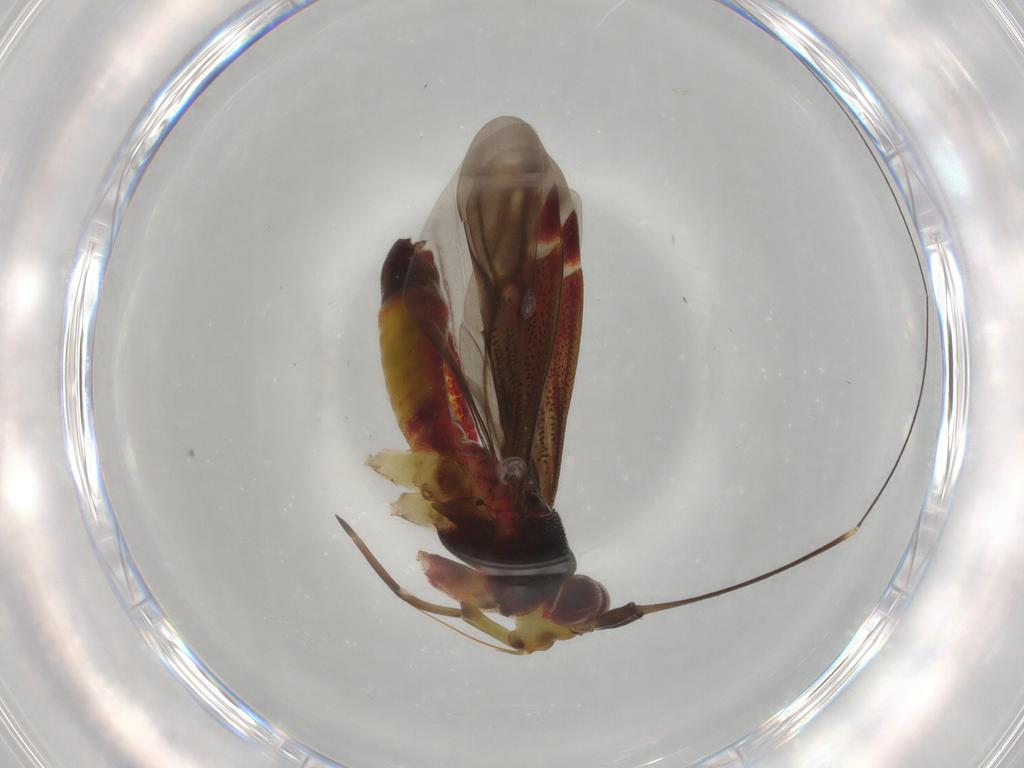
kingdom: Animalia
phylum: Arthropoda
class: Insecta
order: Hemiptera
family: Miridae
